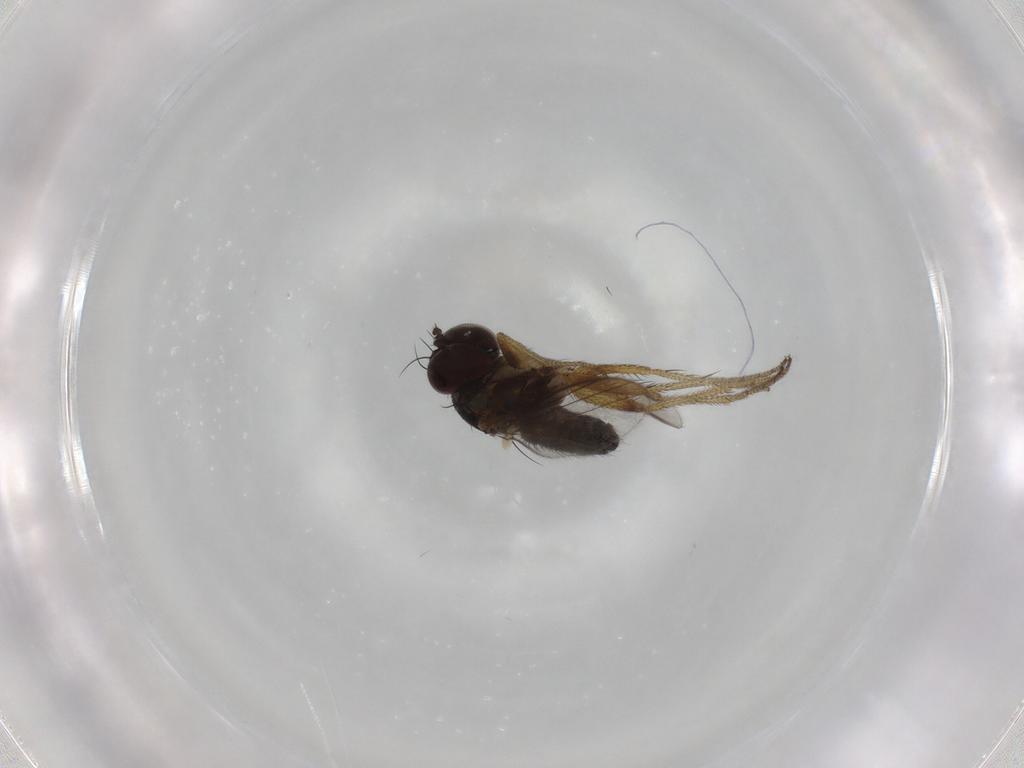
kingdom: Animalia
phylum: Arthropoda
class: Insecta
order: Diptera
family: Dolichopodidae
